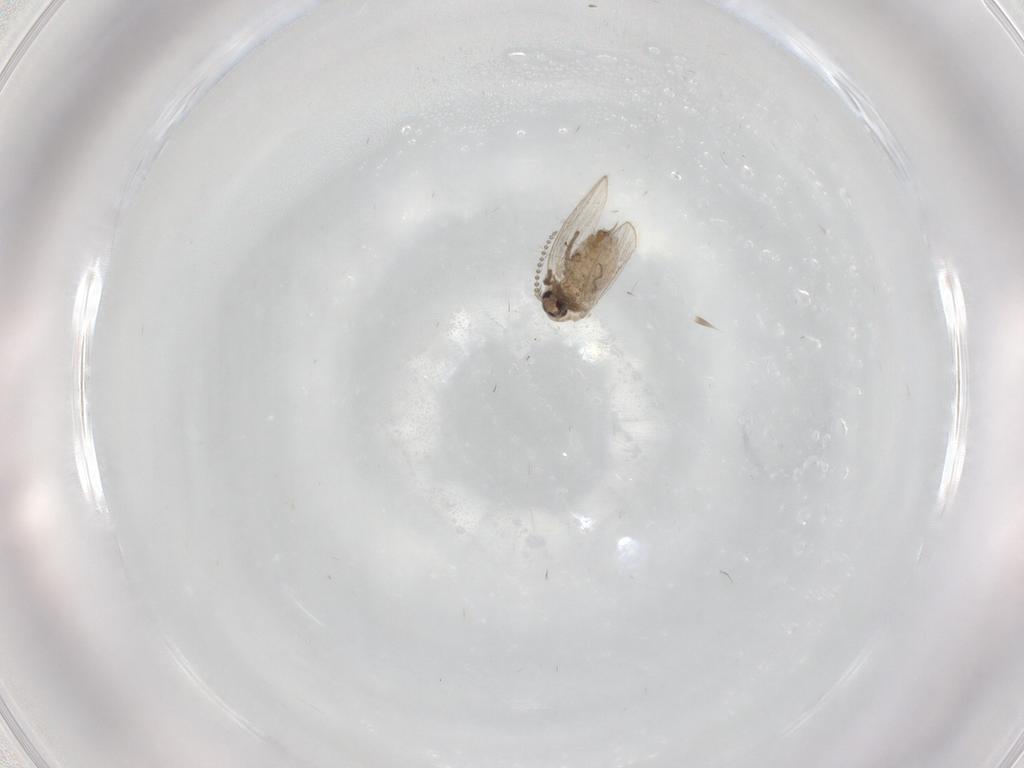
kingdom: Animalia
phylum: Arthropoda
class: Insecta
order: Diptera
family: Psychodidae
